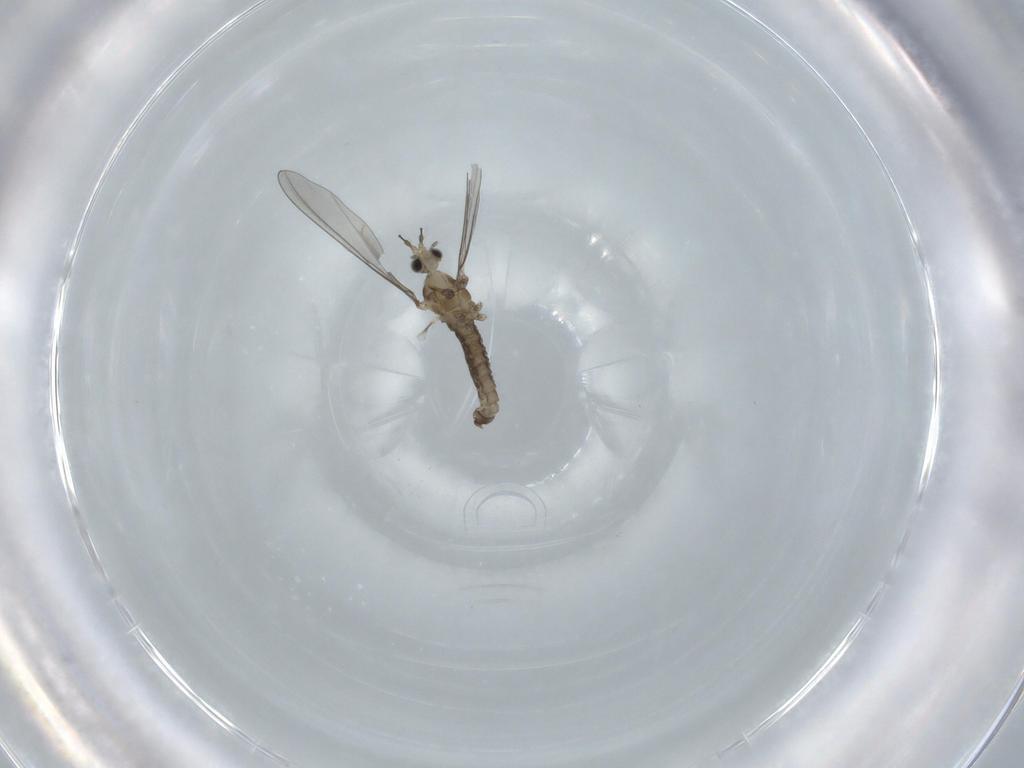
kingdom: Animalia
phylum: Arthropoda
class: Insecta
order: Diptera
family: Cecidomyiidae
